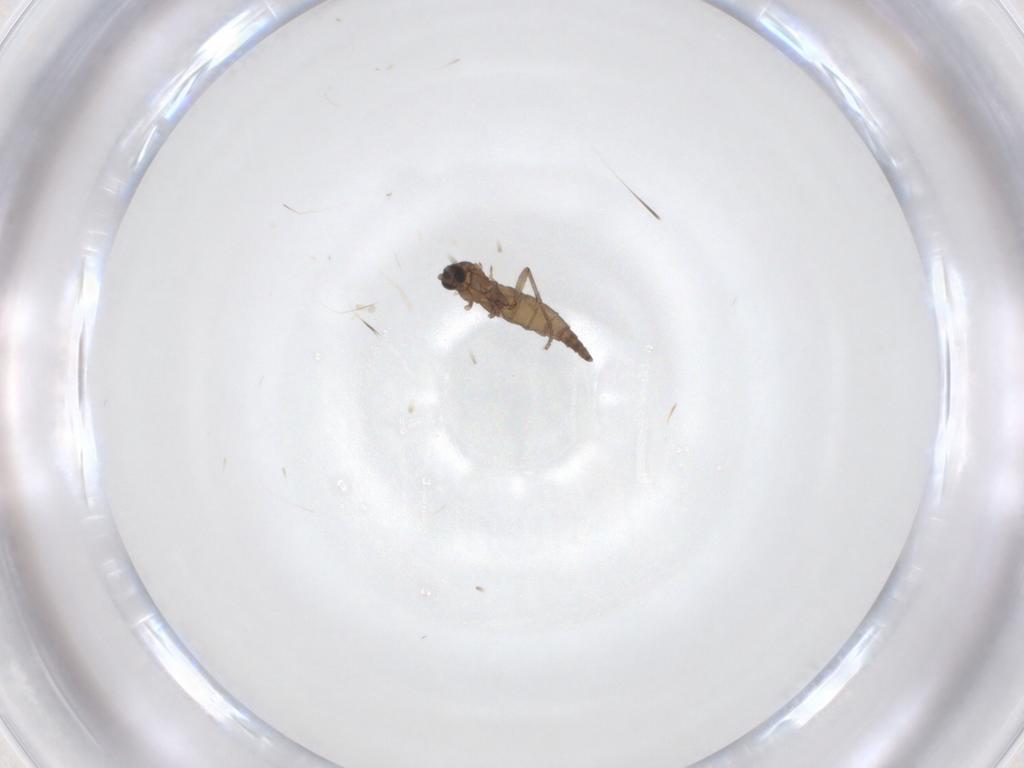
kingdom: Animalia
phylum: Arthropoda
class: Insecta
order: Diptera
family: Sciaridae
